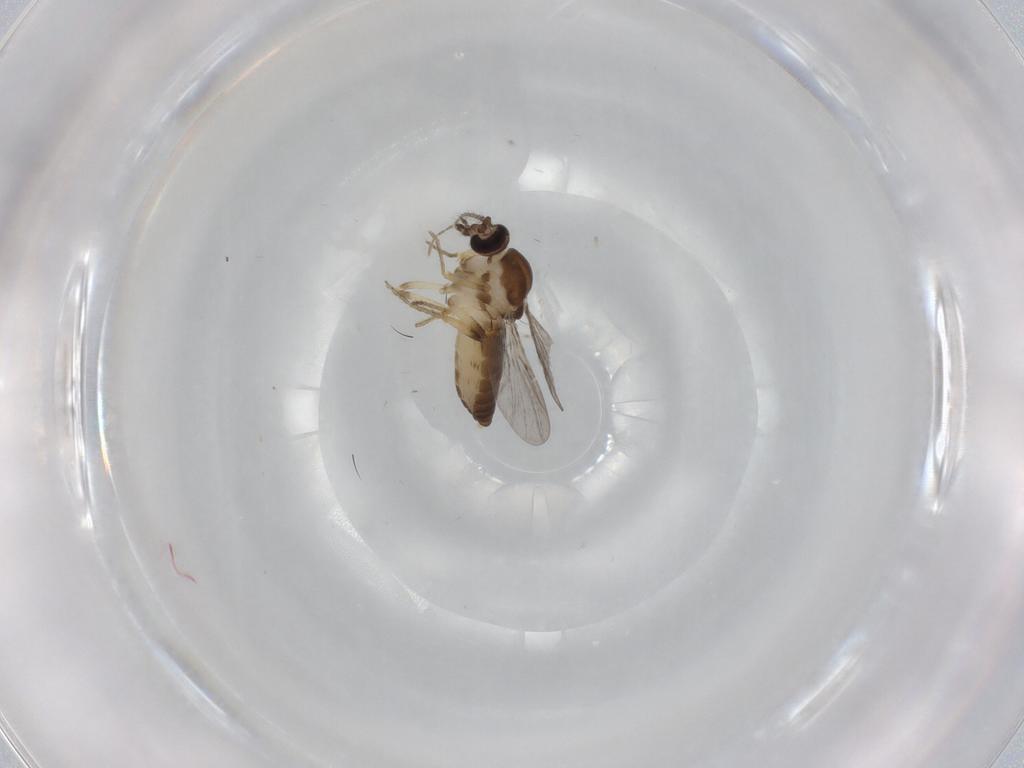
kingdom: Animalia
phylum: Arthropoda
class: Insecta
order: Diptera
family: Ceratopogonidae
